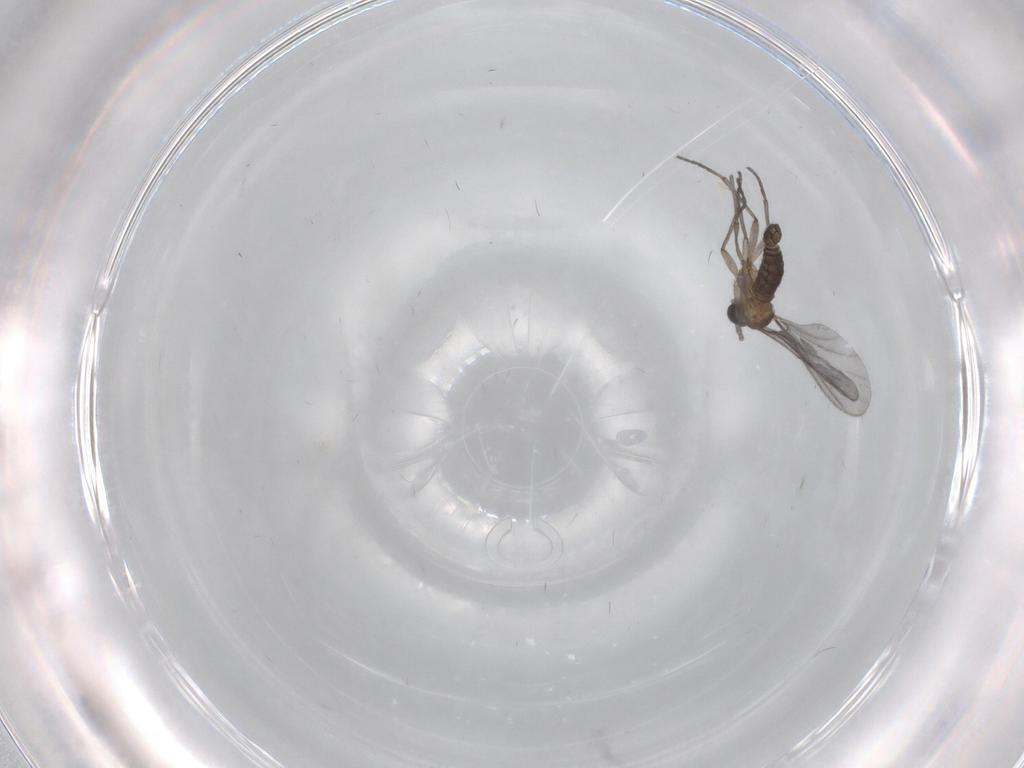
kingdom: Animalia
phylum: Arthropoda
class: Insecta
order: Diptera
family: Sciaridae
